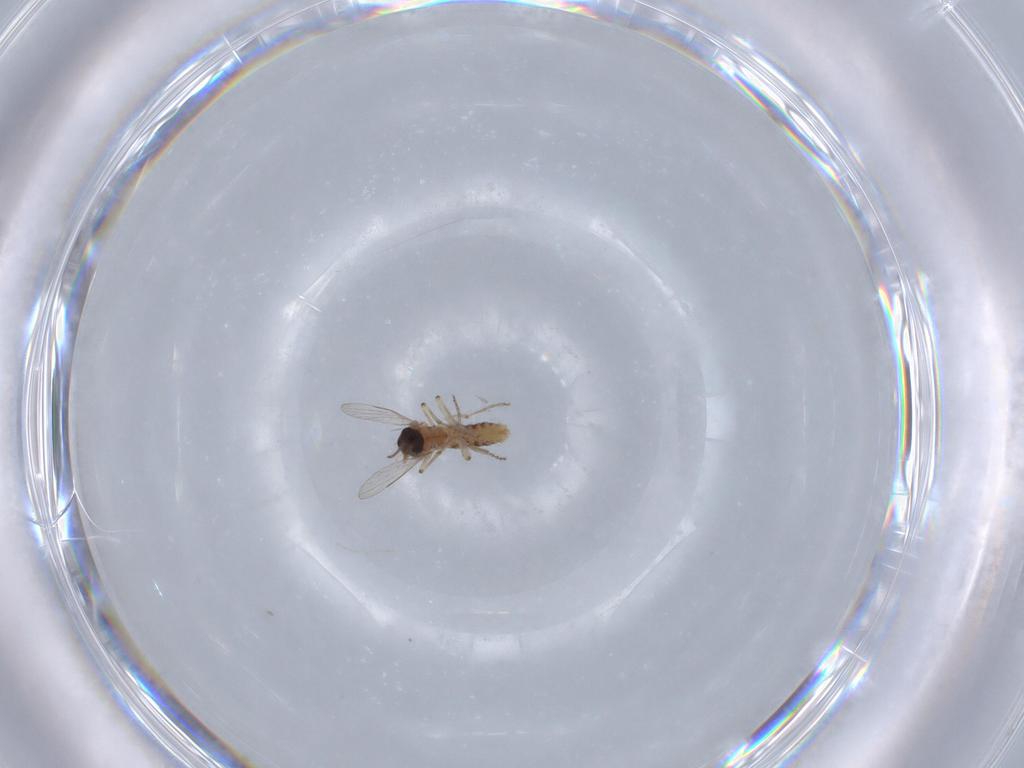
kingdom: Animalia
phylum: Arthropoda
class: Insecta
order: Diptera
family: Ceratopogonidae
